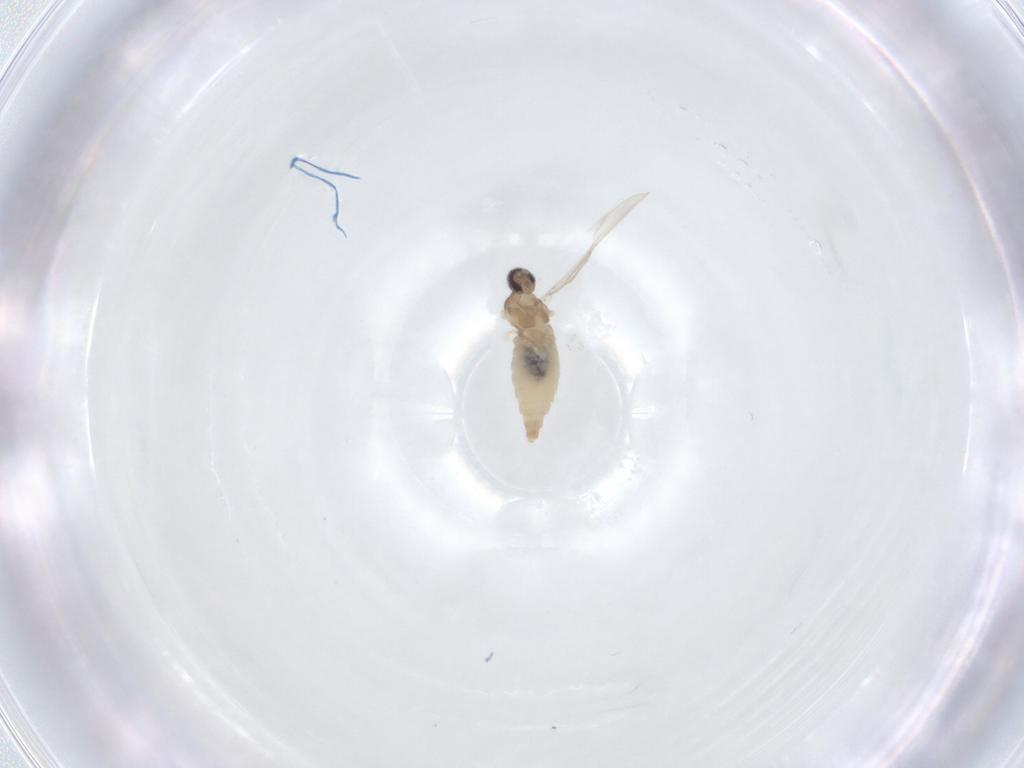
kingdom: Animalia
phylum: Arthropoda
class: Insecta
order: Diptera
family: Cecidomyiidae
